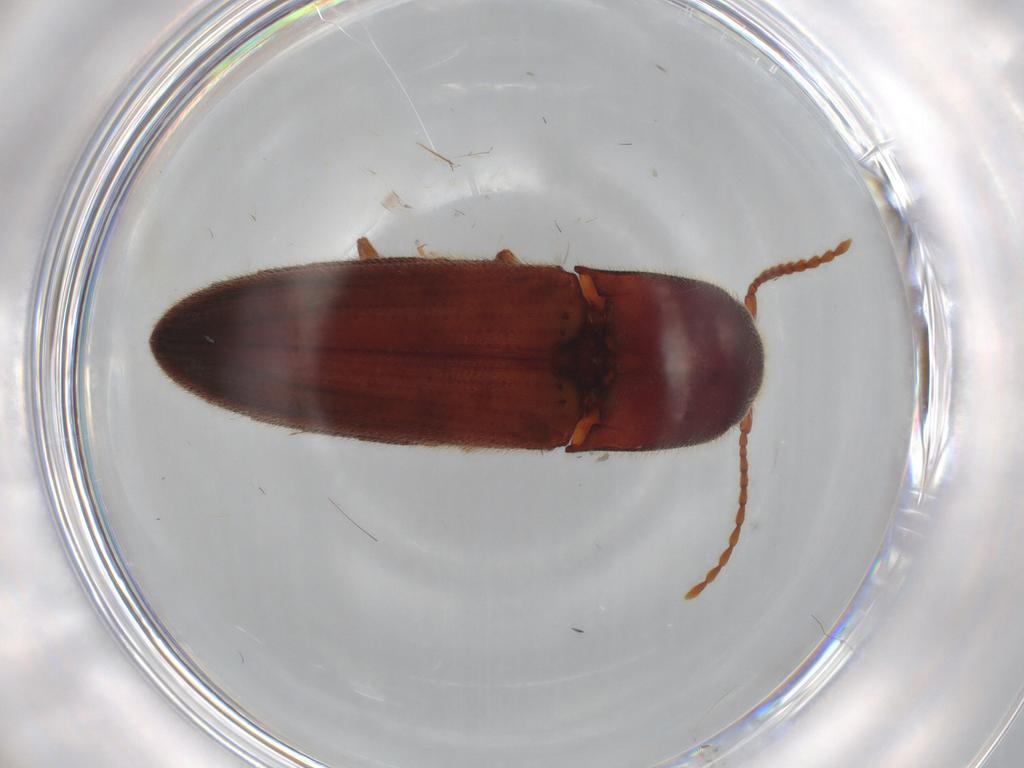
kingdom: Animalia
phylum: Arthropoda
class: Insecta
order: Coleoptera
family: Elateridae
